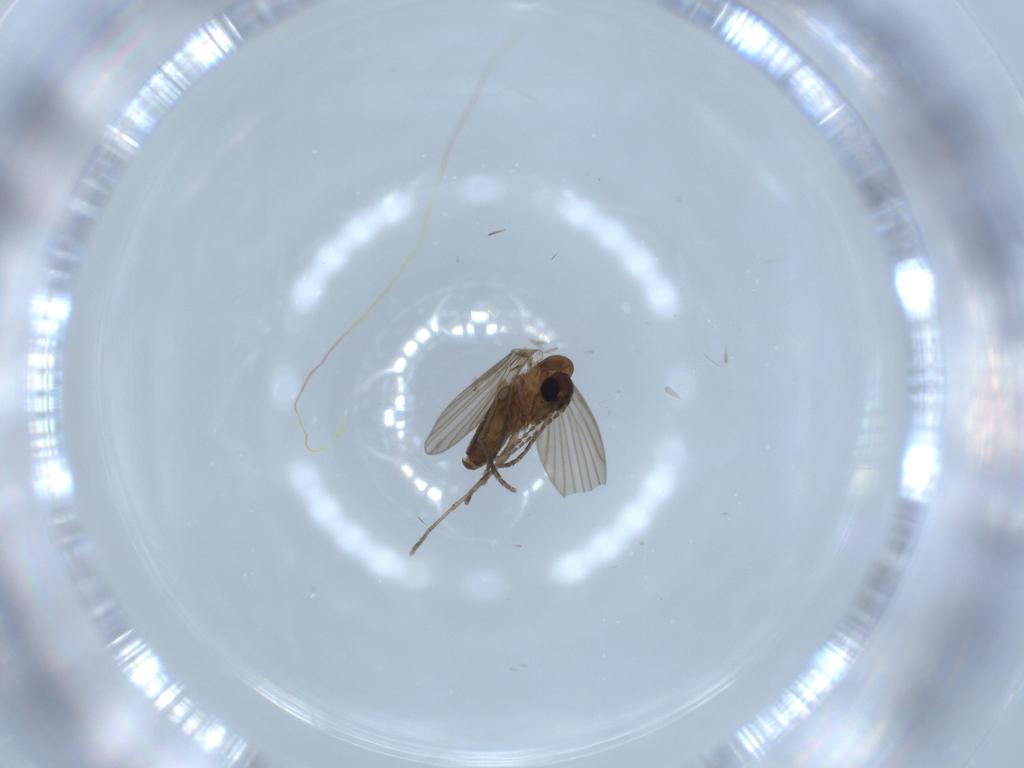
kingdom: Animalia
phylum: Arthropoda
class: Insecta
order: Diptera
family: Psychodidae
